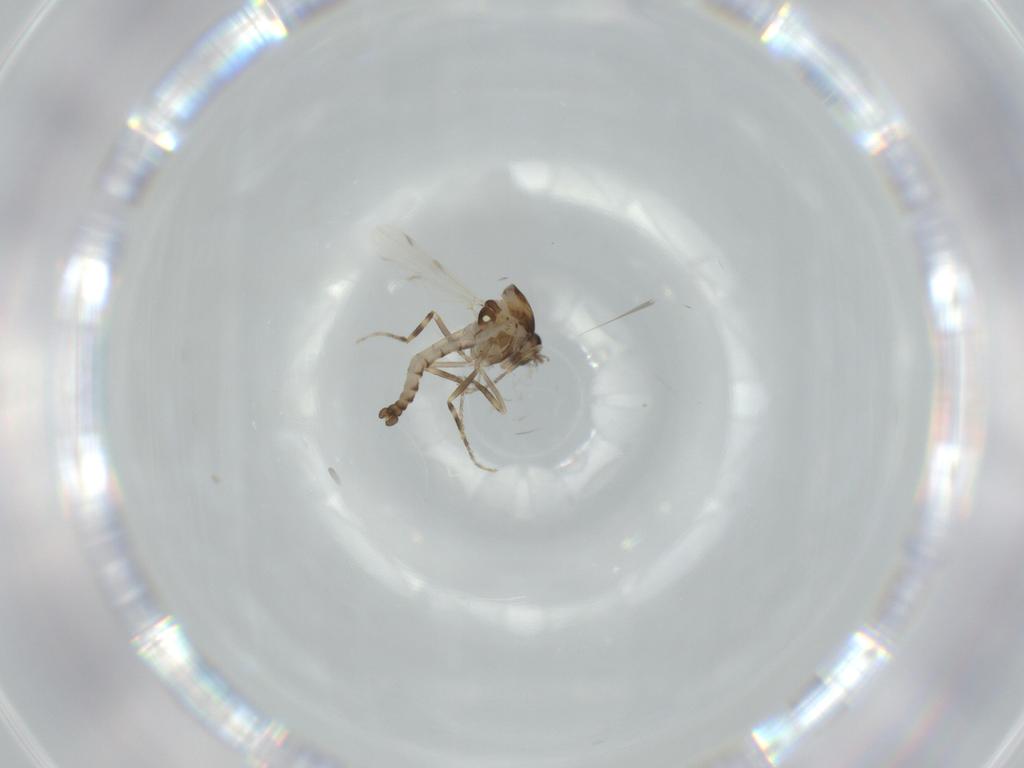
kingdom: Animalia
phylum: Arthropoda
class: Insecta
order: Diptera
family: Ceratopogonidae
